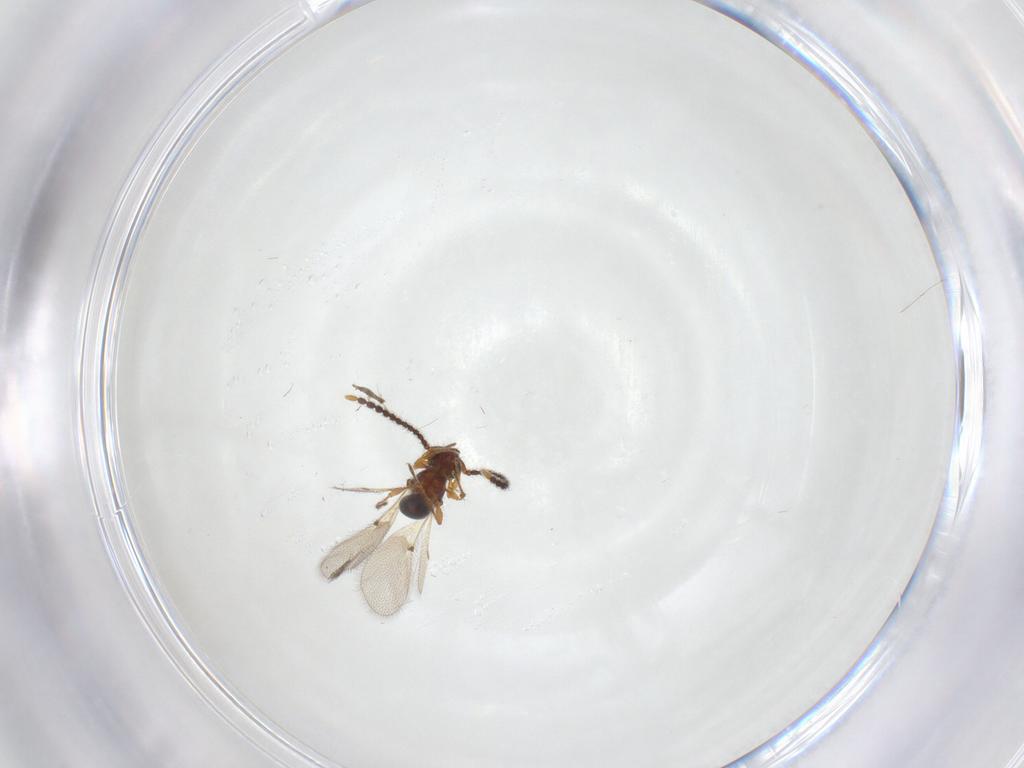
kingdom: Animalia
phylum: Arthropoda
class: Insecta
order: Hymenoptera
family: Diapriidae
